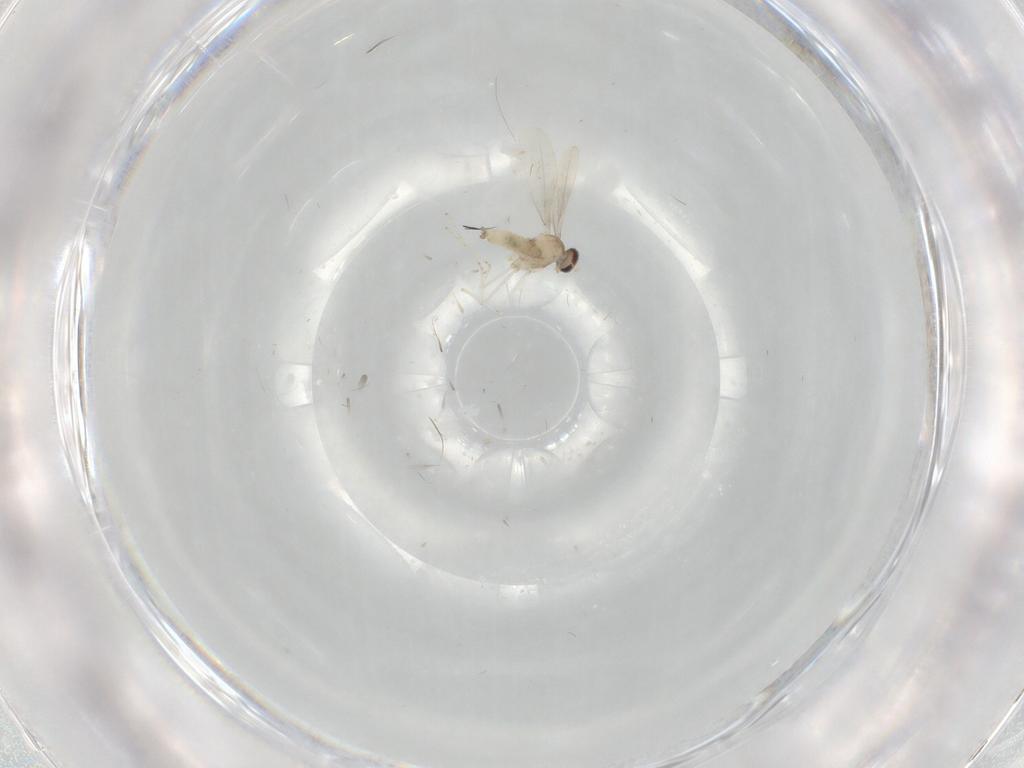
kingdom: Animalia
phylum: Arthropoda
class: Insecta
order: Diptera
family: Cecidomyiidae
